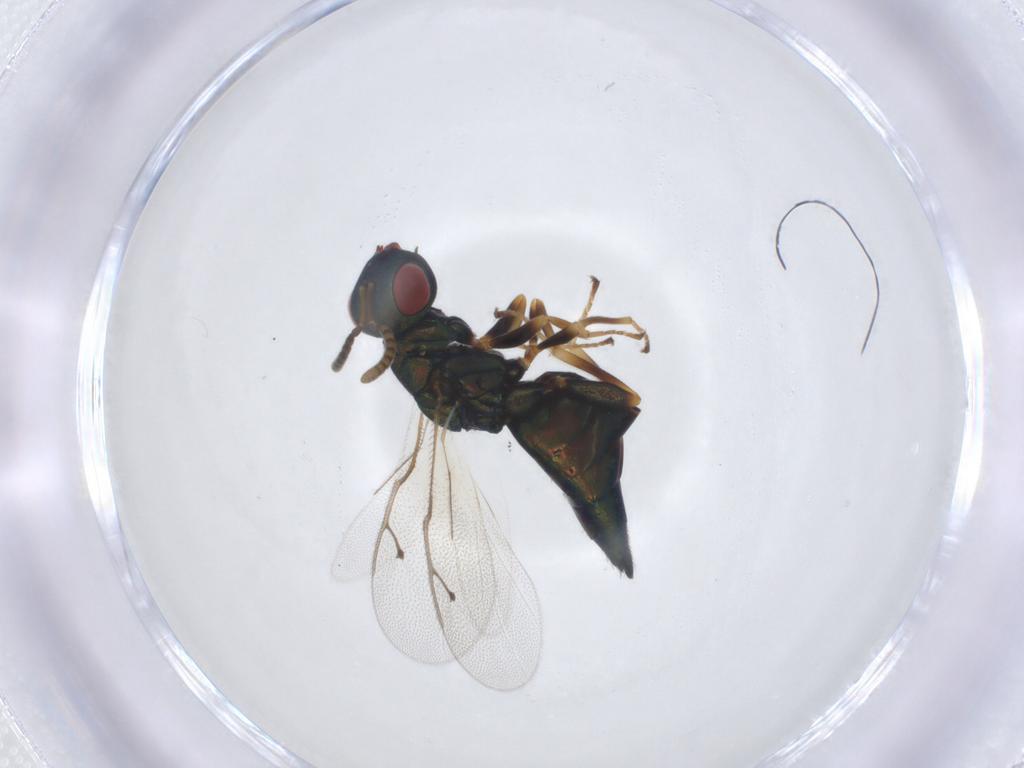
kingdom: Animalia
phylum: Arthropoda
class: Insecta
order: Hymenoptera
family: Pteromalidae
